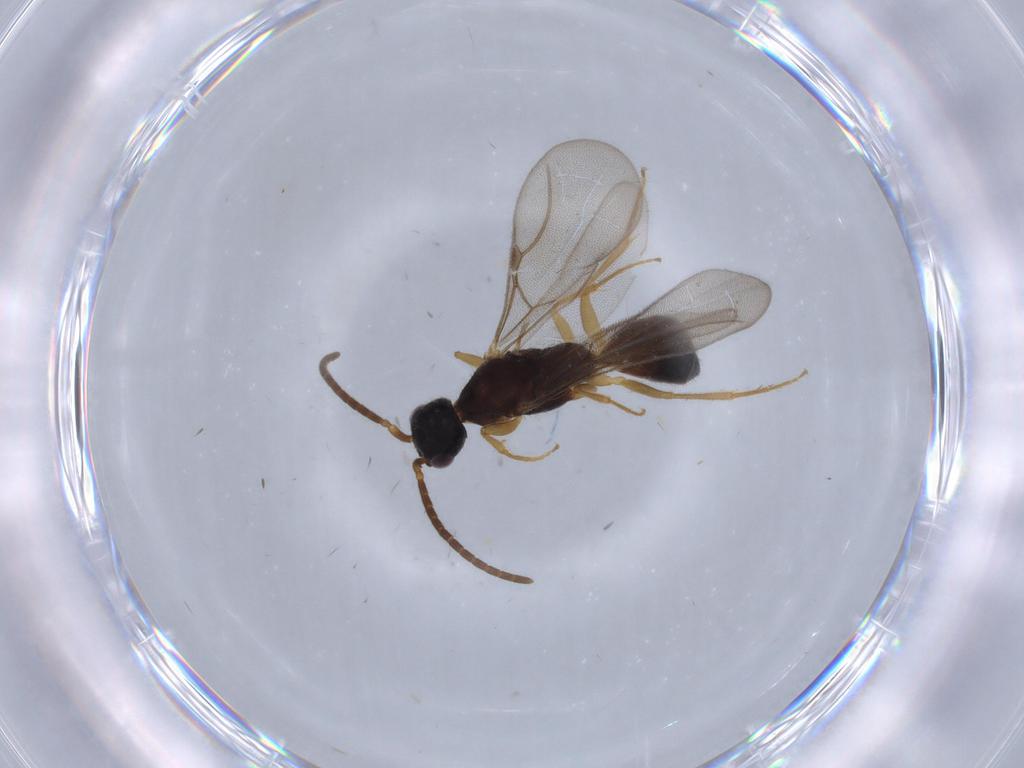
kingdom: Animalia
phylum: Arthropoda
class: Insecta
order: Hymenoptera
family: Bethylidae
